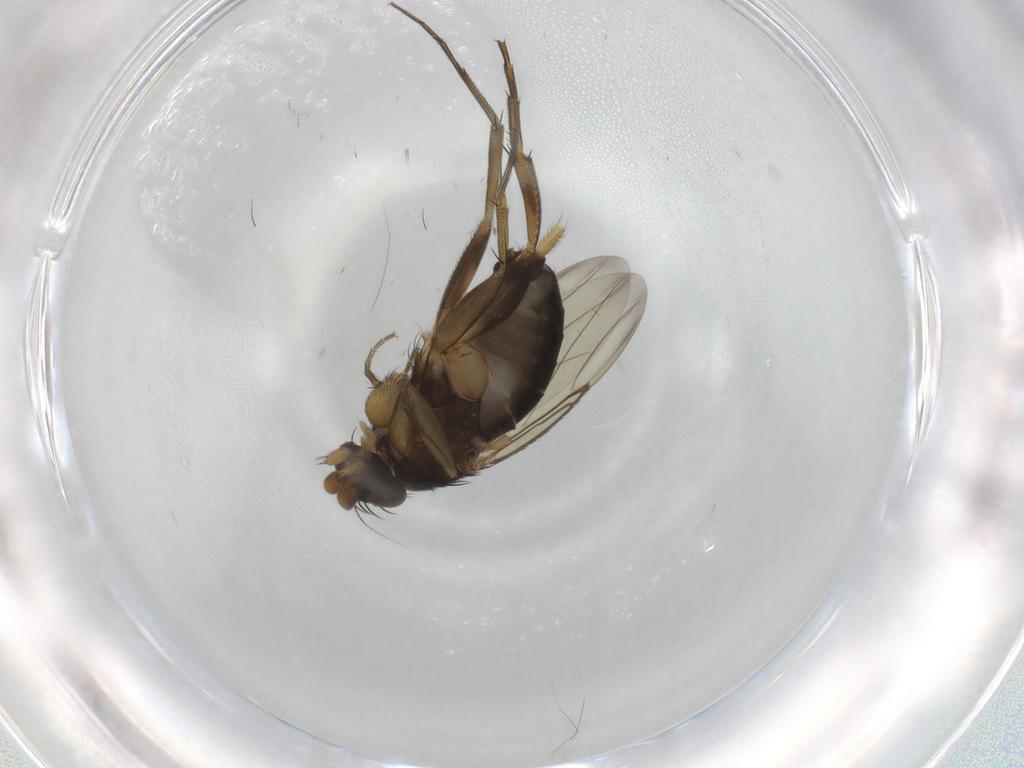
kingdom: Animalia
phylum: Arthropoda
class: Insecta
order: Diptera
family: Phoridae
